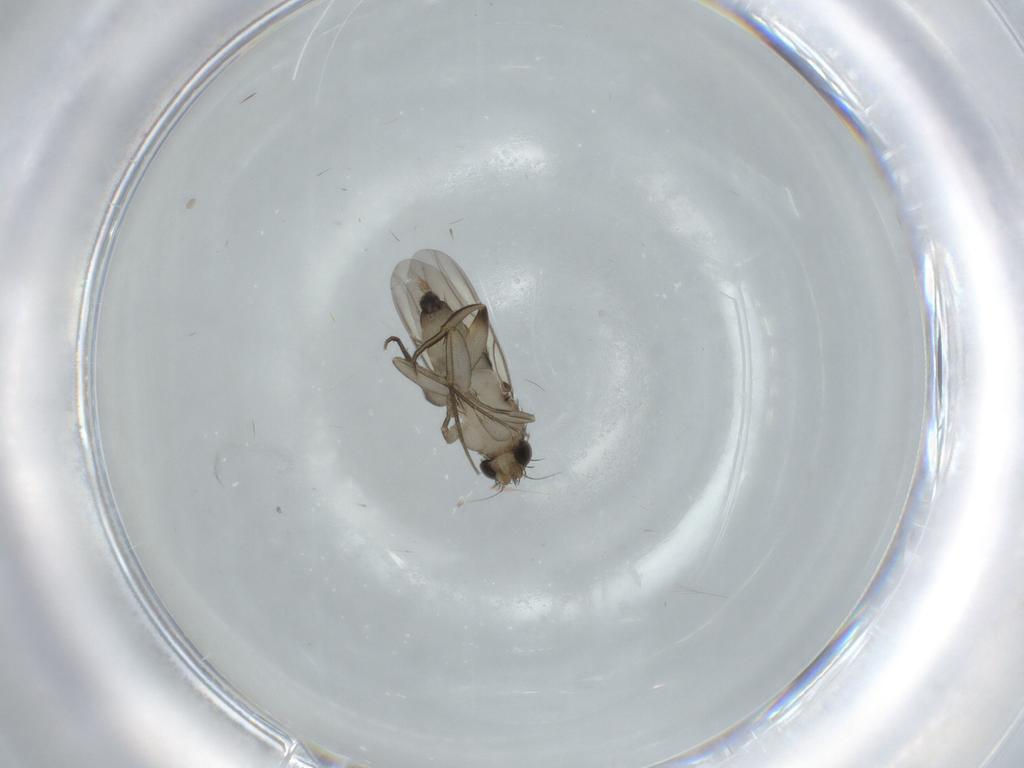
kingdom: Animalia
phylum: Arthropoda
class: Insecta
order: Diptera
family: Phoridae
